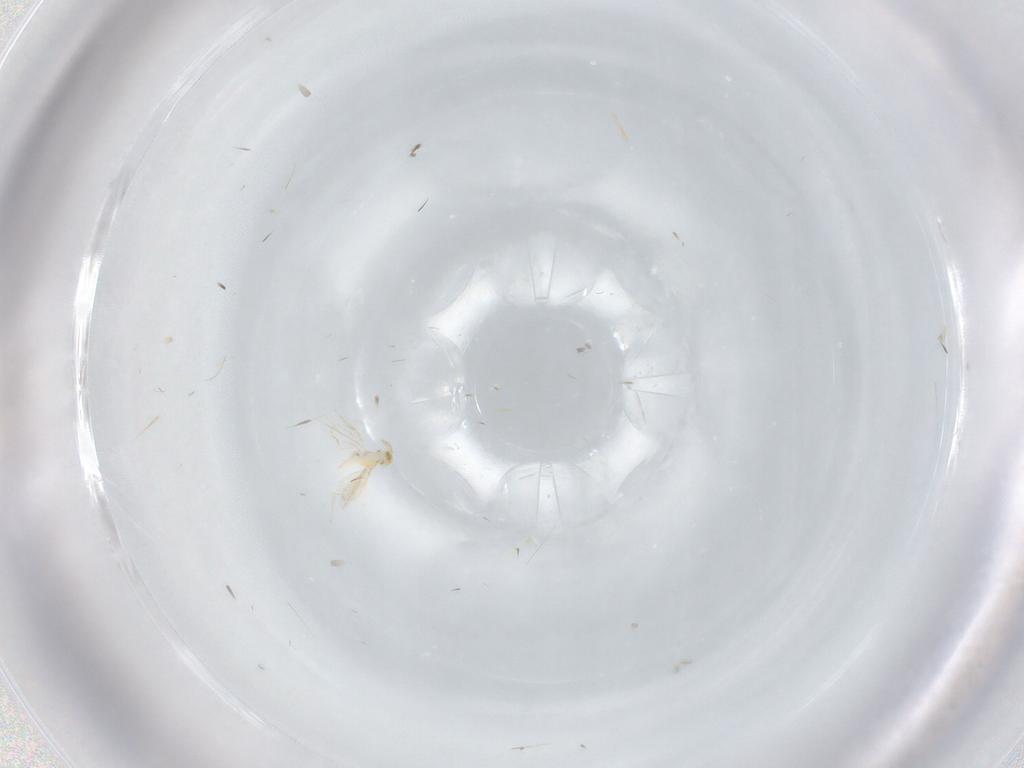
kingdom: Animalia
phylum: Arthropoda
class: Insecta
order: Hymenoptera
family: Aphelinidae
